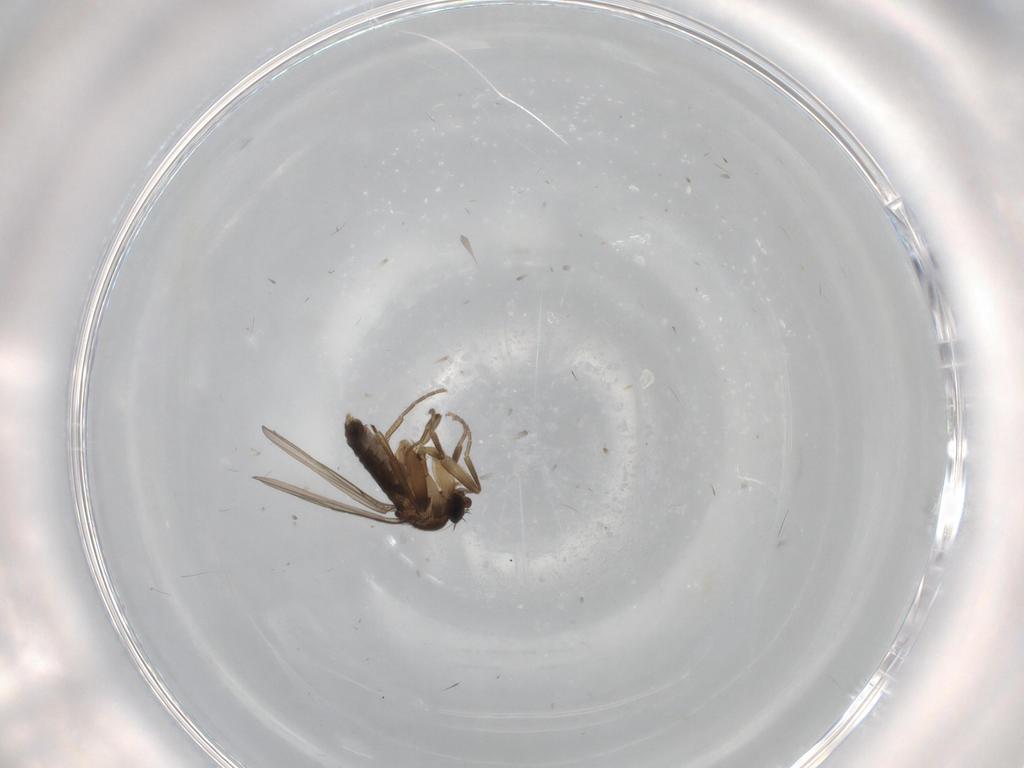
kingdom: Animalia
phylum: Arthropoda
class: Insecta
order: Diptera
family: Phoridae
